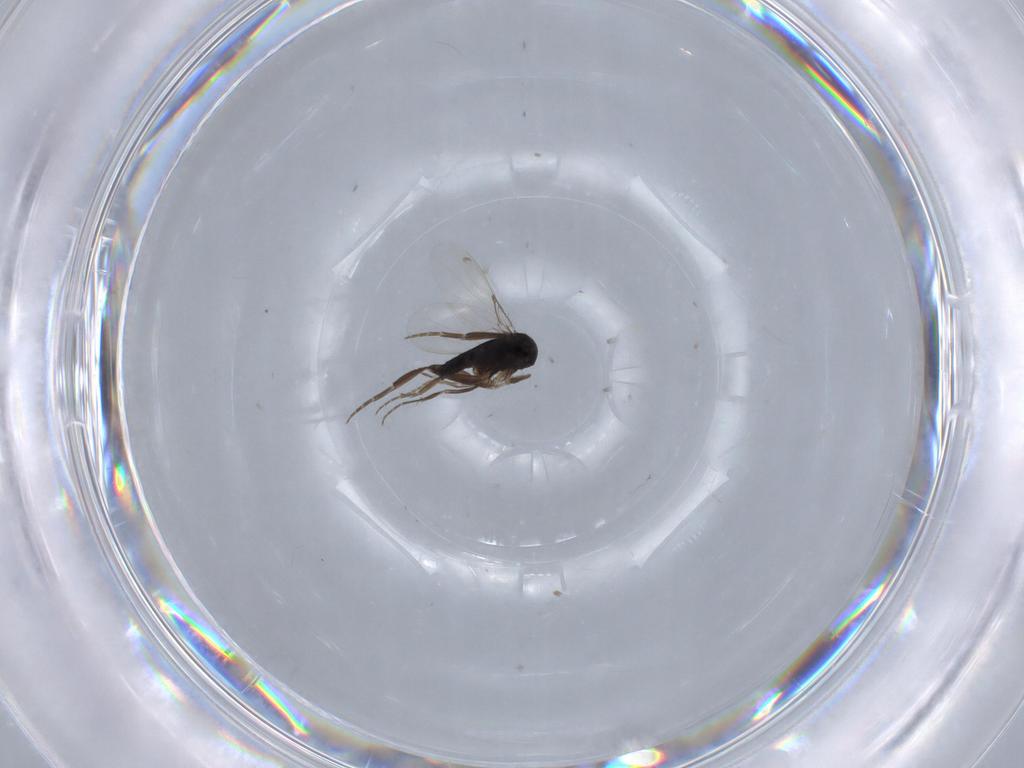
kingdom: Animalia
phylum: Arthropoda
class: Insecta
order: Diptera
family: Phoridae
